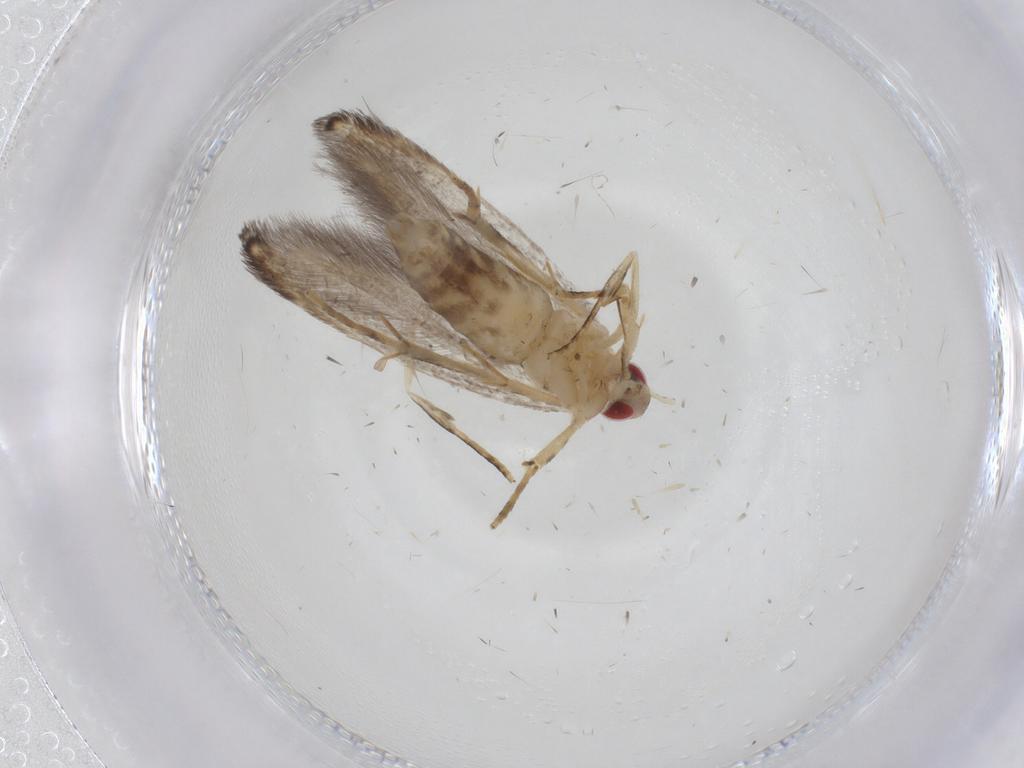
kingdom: Animalia
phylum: Arthropoda
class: Insecta
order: Lepidoptera
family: Cosmopterigidae
